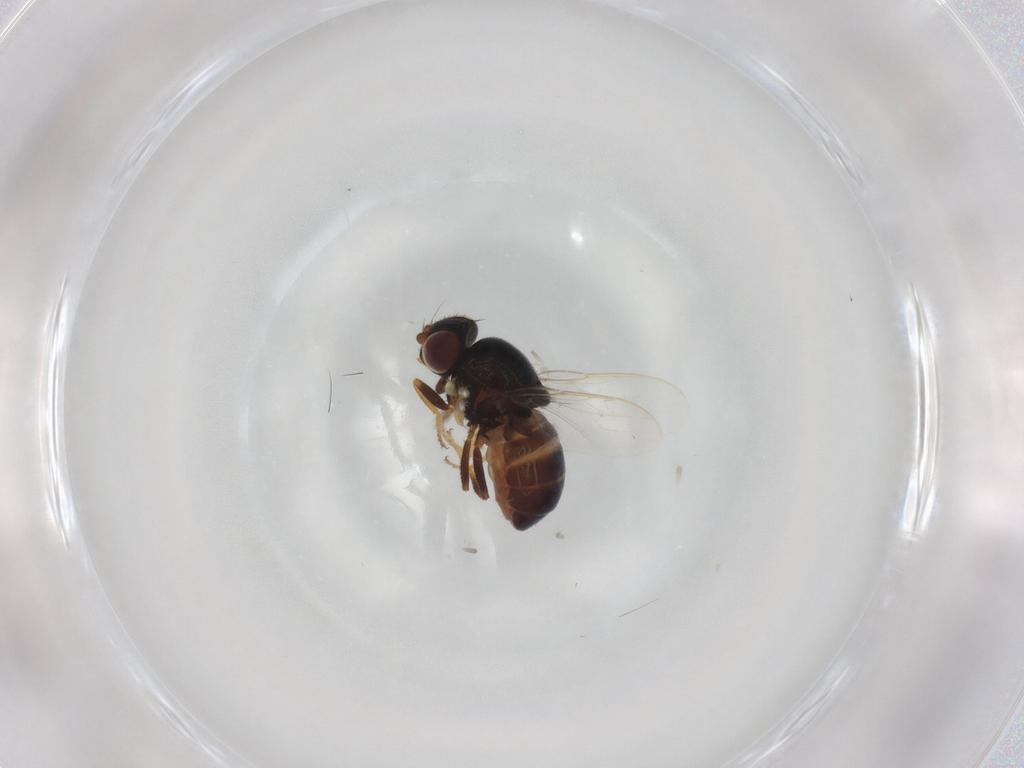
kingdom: Animalia
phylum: Arthropoda
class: Insecta
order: Diptera
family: Chloropidae
